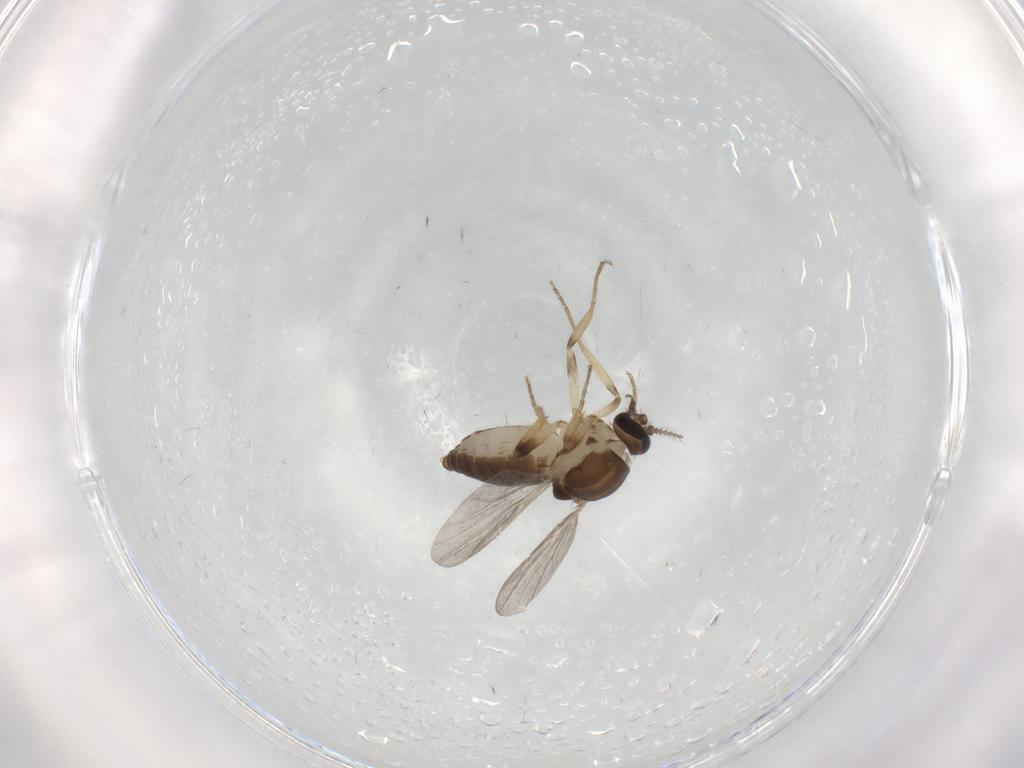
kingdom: Animalia
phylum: Arthropoda
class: Insecta
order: Diptera
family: Ceratopogonidae
